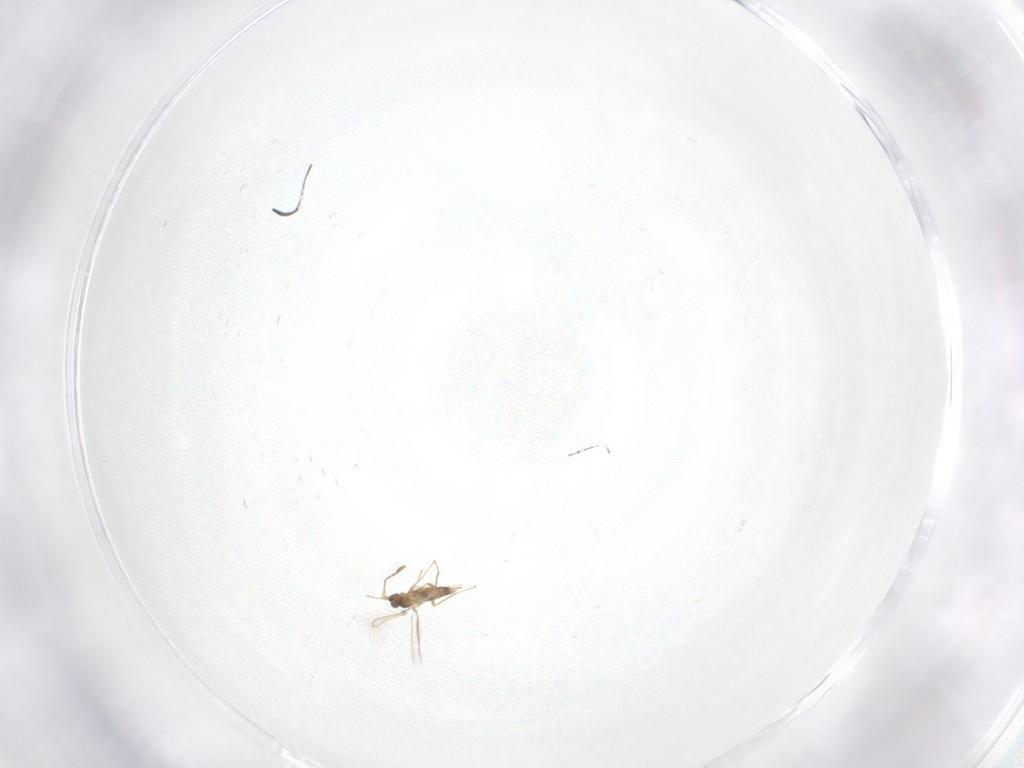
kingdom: Animalia
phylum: Arthropoda
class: Insecta
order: Hymenoptera
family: Mymaridae
